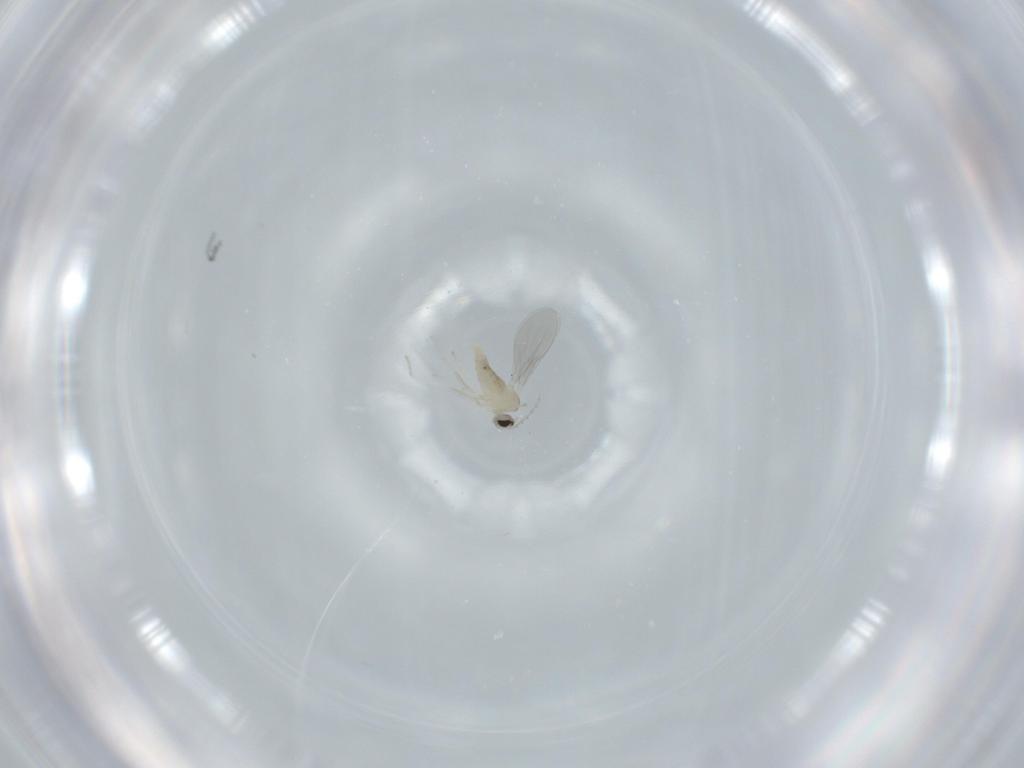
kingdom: Animalia
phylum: Arthropoda
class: Insecta
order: Diptera
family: Cecidomyiidae
